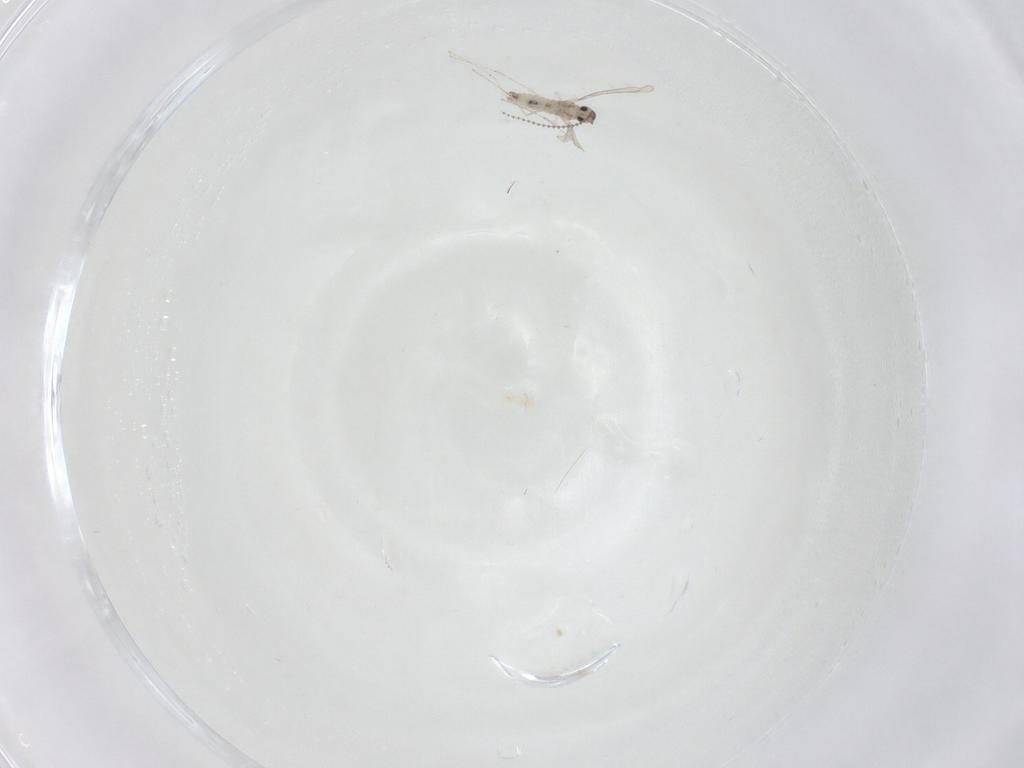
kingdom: Animalia
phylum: Arthropoda
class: Insecta
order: Diptera
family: Cecidomyiidae
